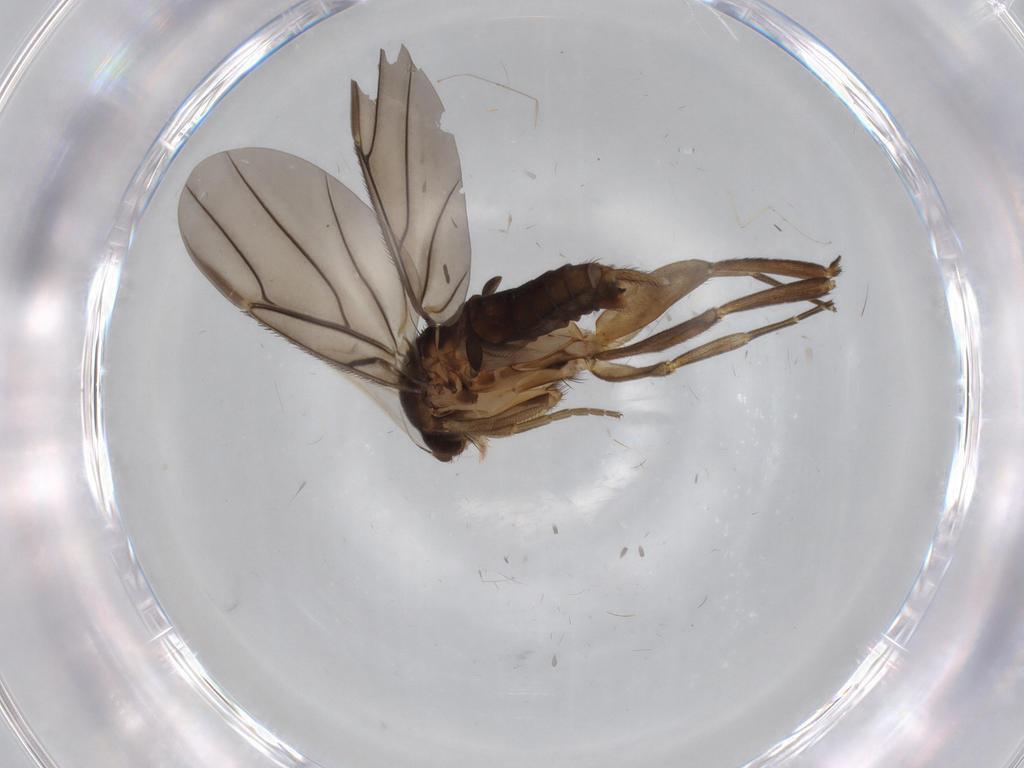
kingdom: Animalia
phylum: Arthropoda
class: Insecta
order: Diptera
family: Phoridae
